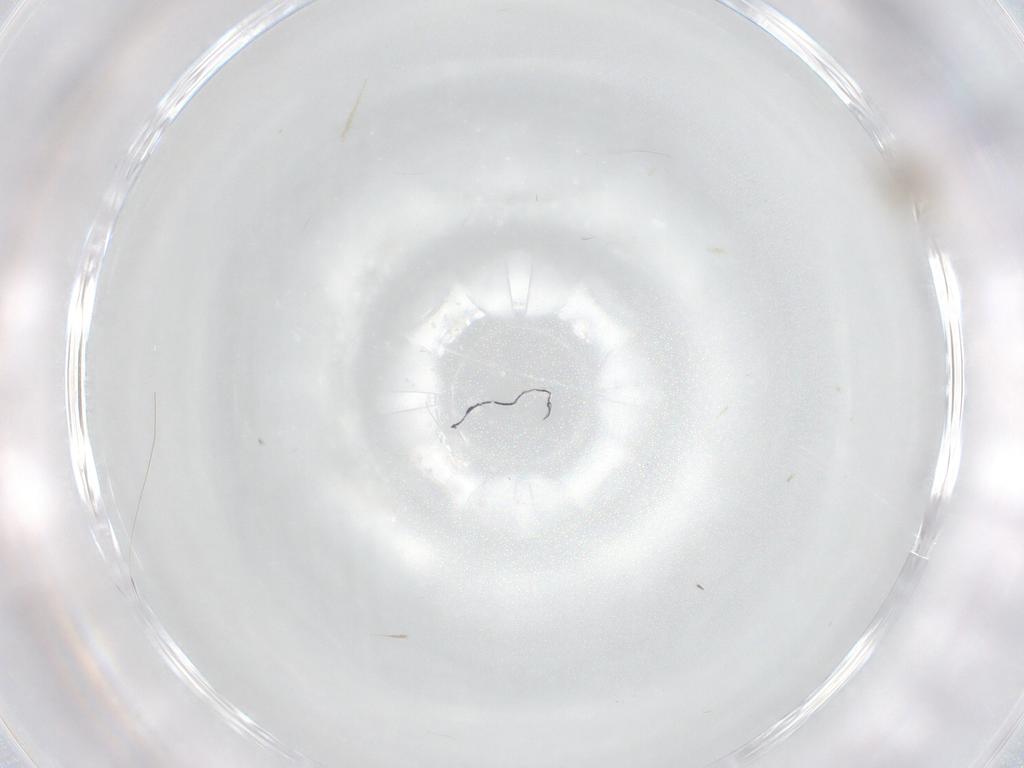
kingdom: Animalia
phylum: Arthropoda
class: Insecta
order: Diptera
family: Cecidomyiidae
